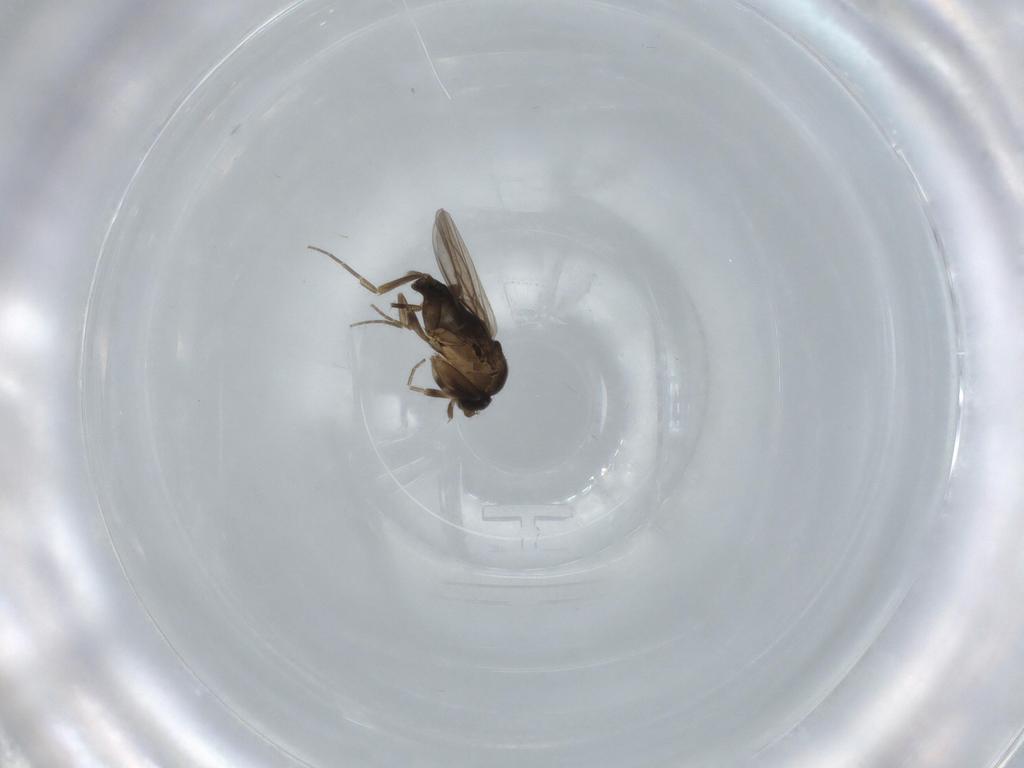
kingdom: Animalia
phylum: Arthropoda
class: Insecta
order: Diptera
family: Phoridae
